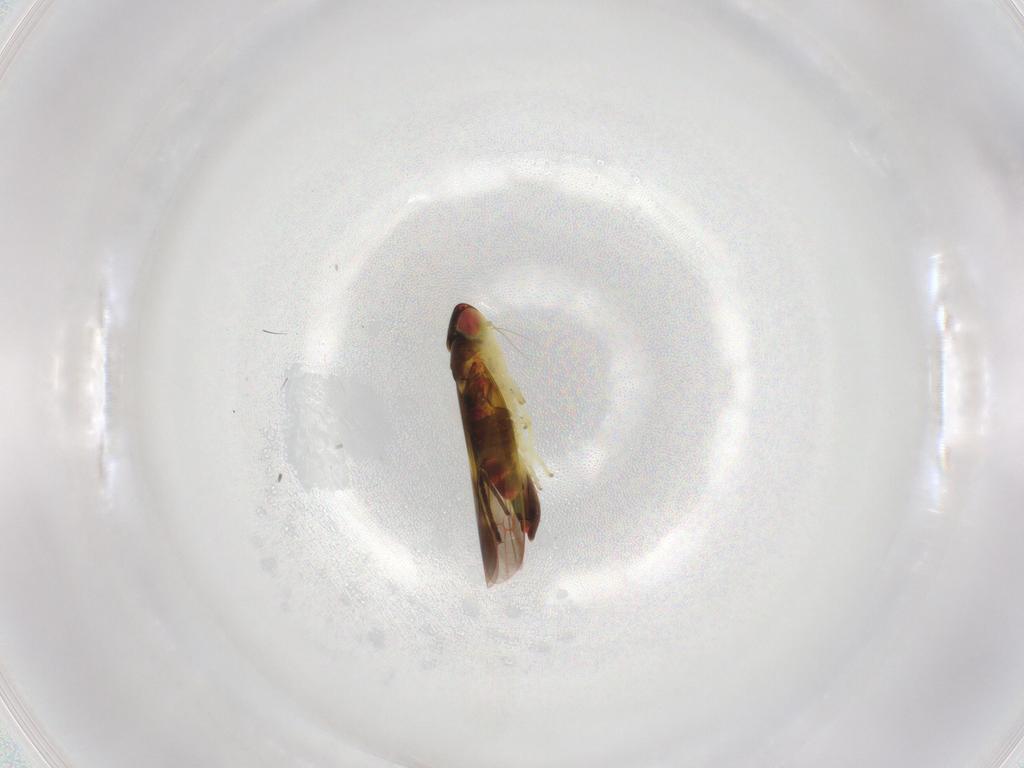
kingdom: Animalia
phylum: Arthropoda
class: Insecta
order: Hemiptera
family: Cicadellidae
